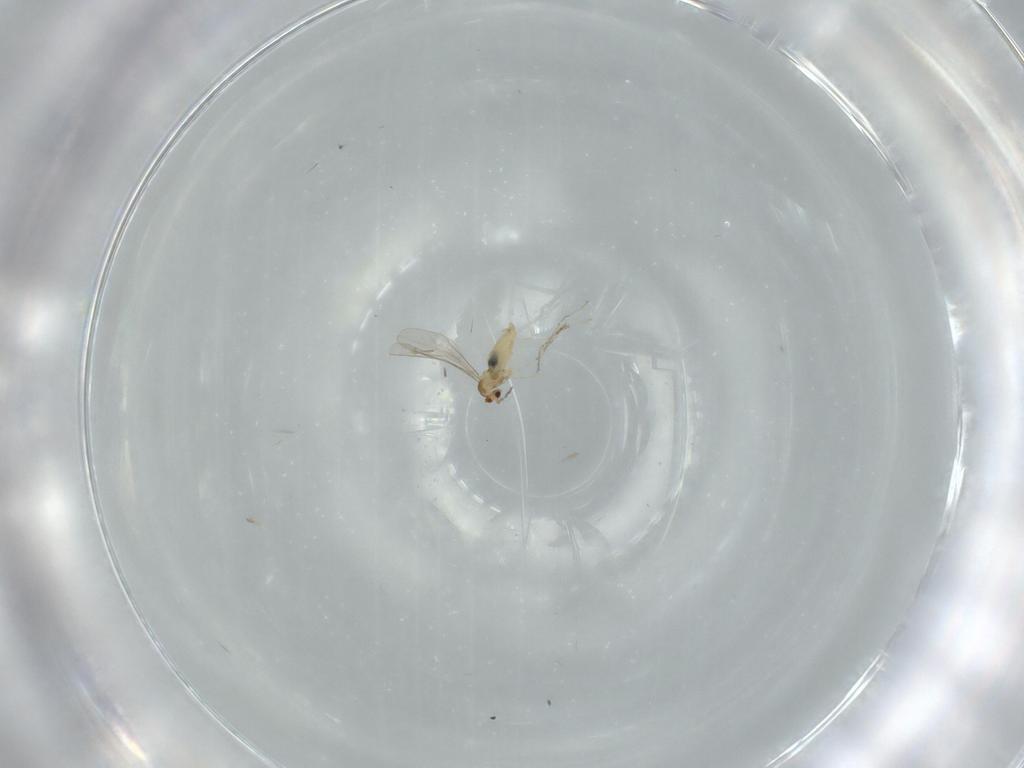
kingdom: Animalia
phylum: Arthropoda
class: Insecta
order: Diptera
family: Cecidomyiidae
